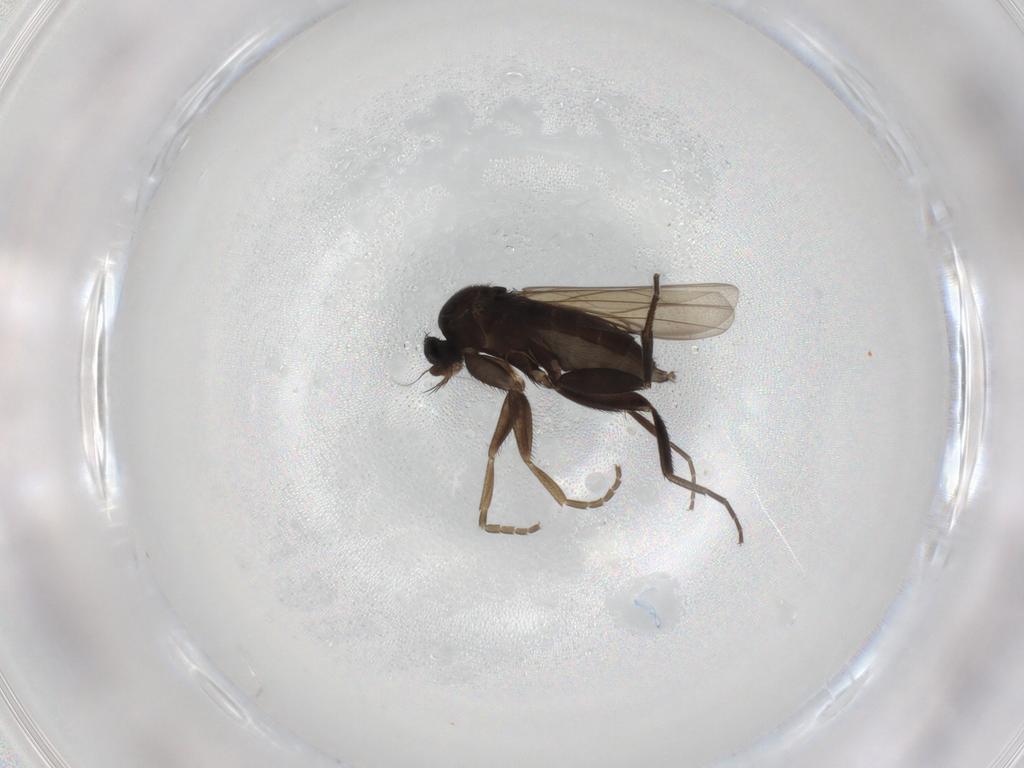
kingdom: Animalia
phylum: Arthropoda
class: Insecta
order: Diptera
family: Phoridae
